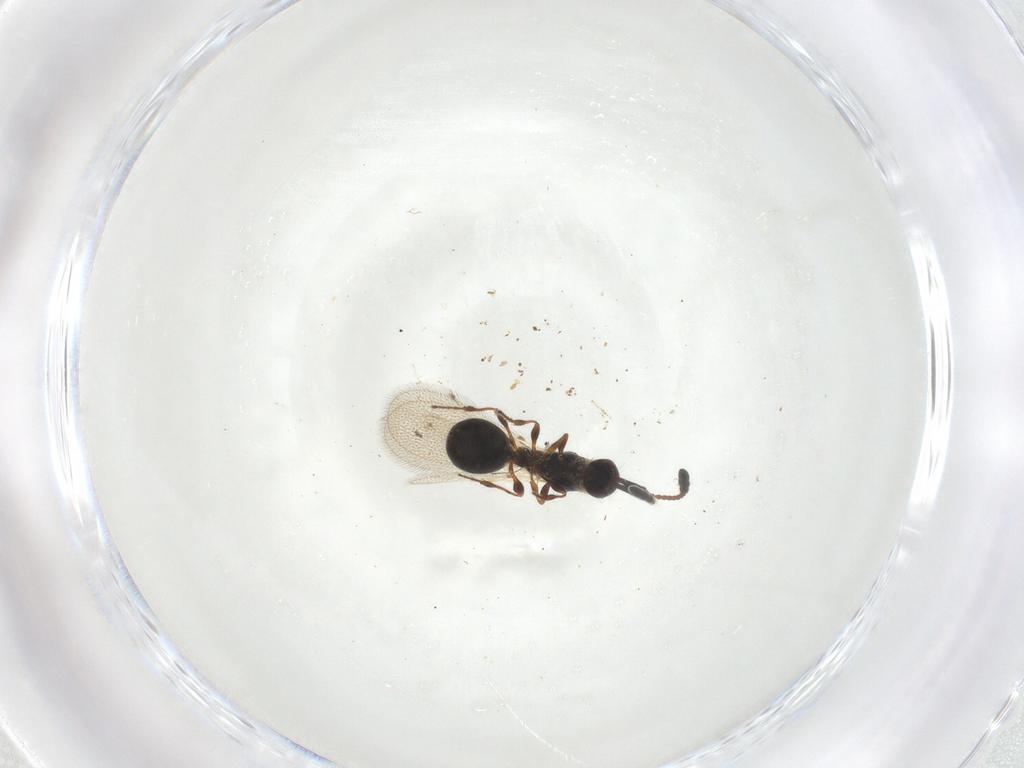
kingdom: Animalia
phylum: Arthropoda
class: Insecta
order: Hymenoptera
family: Diapriidae
